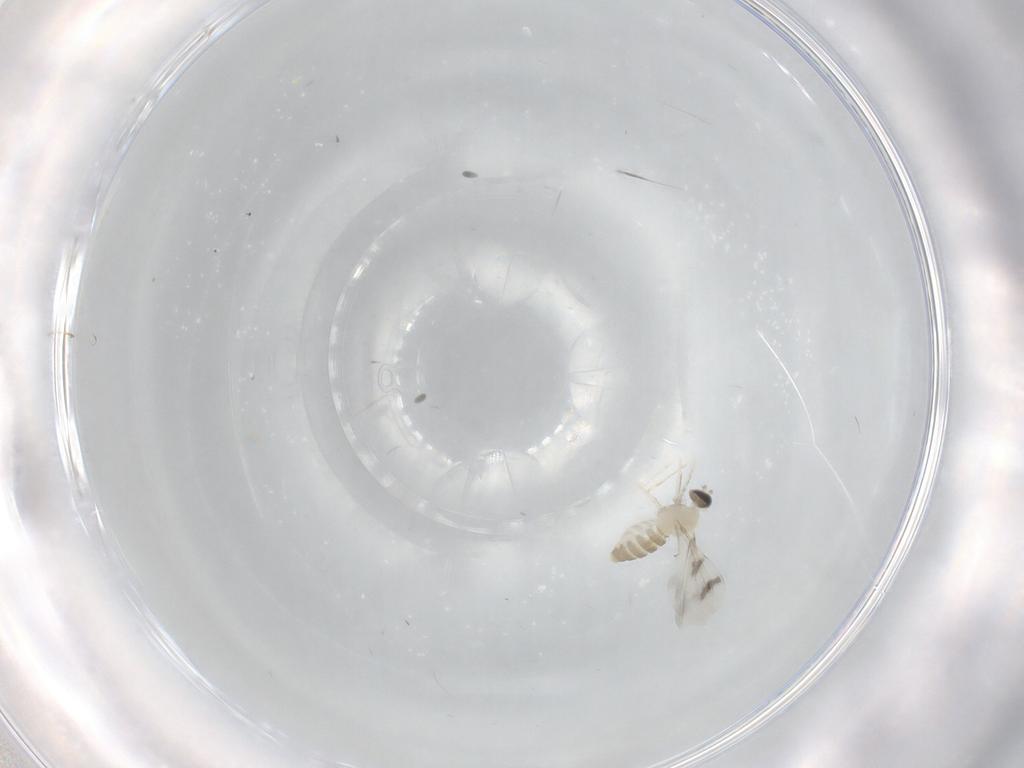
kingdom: Animalia
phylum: Arthropoda
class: Insecta
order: Diptera
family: Cecidomyiidae
